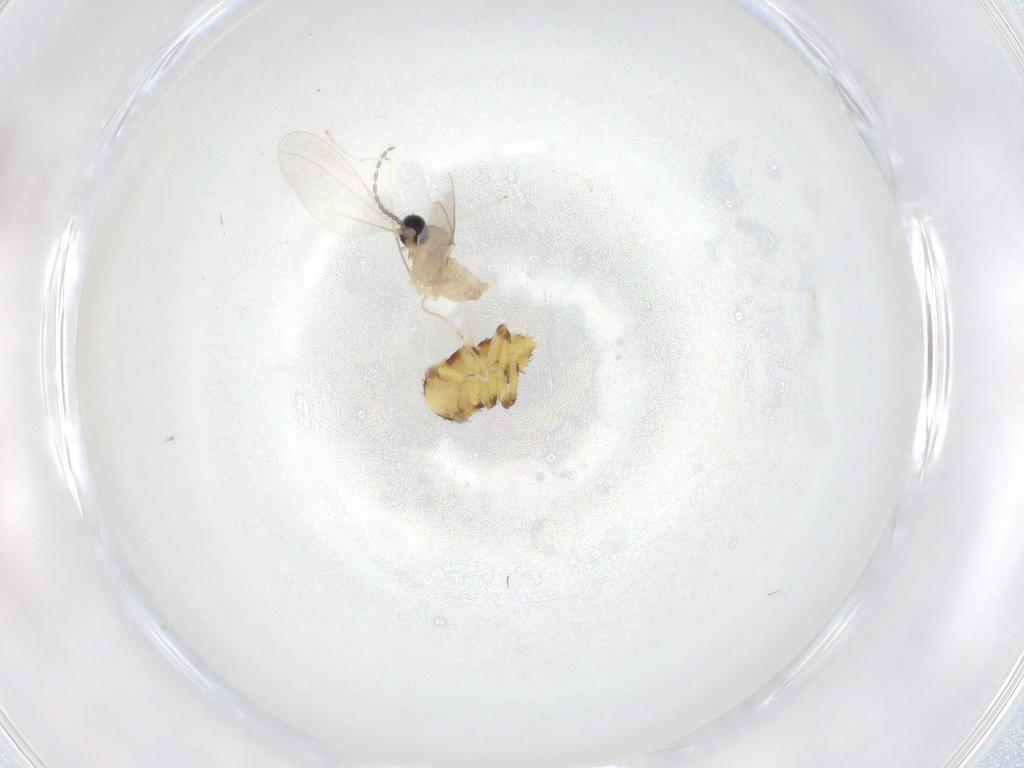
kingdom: Animalia
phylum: Arthropoda
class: Insecta
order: Hemiptera
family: Cicadellidae
